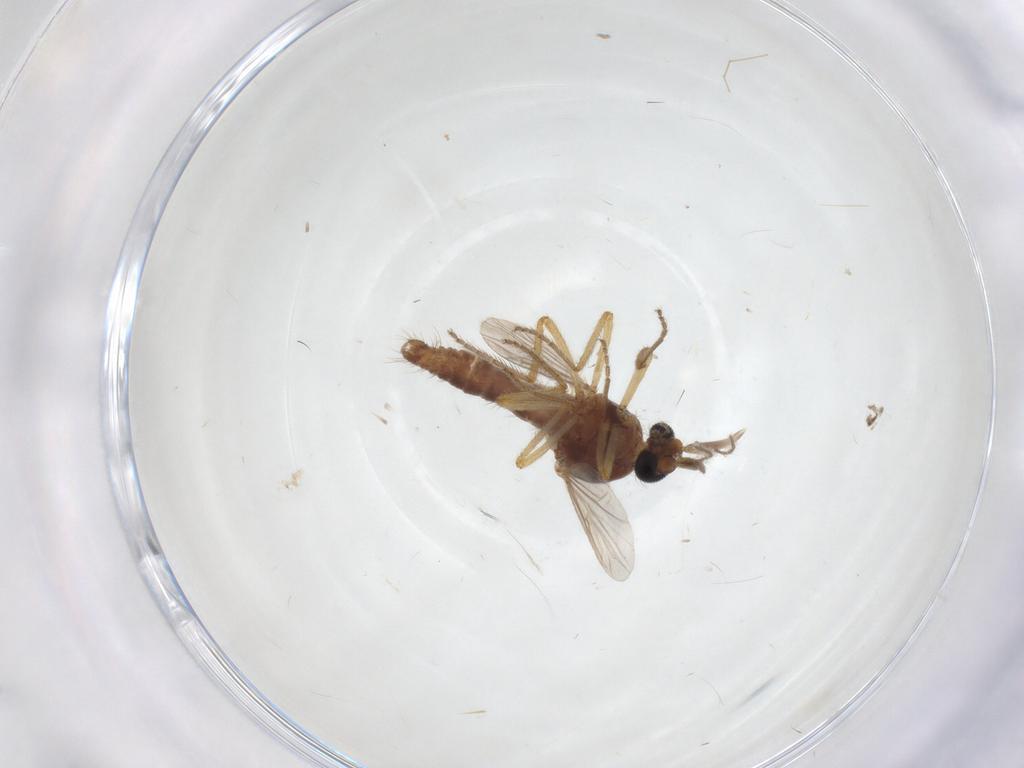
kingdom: Animalia
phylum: Arthropoda
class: Insecta
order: Diptera
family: Ceratopogonidae
